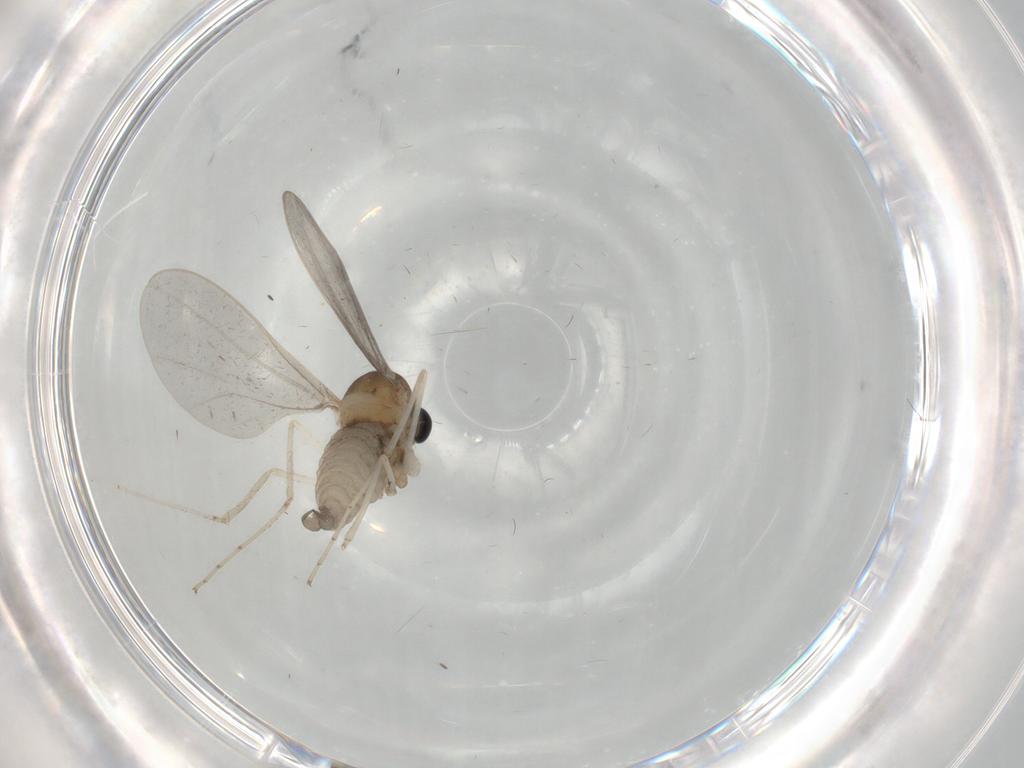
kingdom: Animalia
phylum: Arthropoda
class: Insecta
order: Diptera
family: Cecidomyiidae
